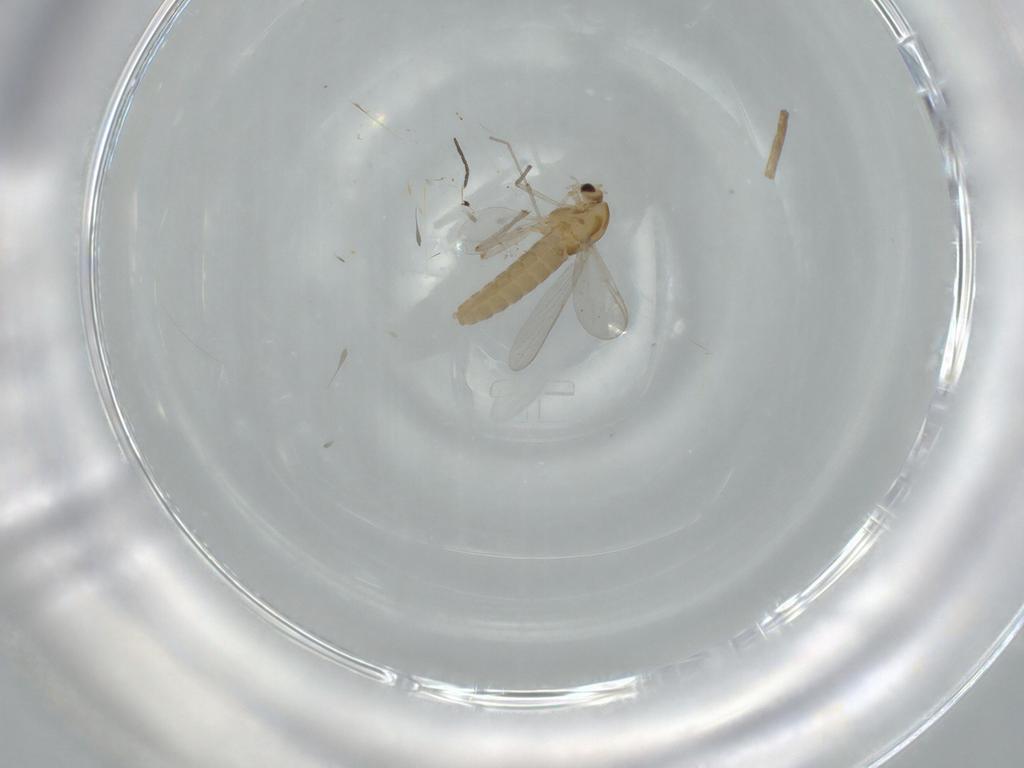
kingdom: Animalia
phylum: Arthropoda
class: Insecta
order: Diptera
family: Chironomidae
